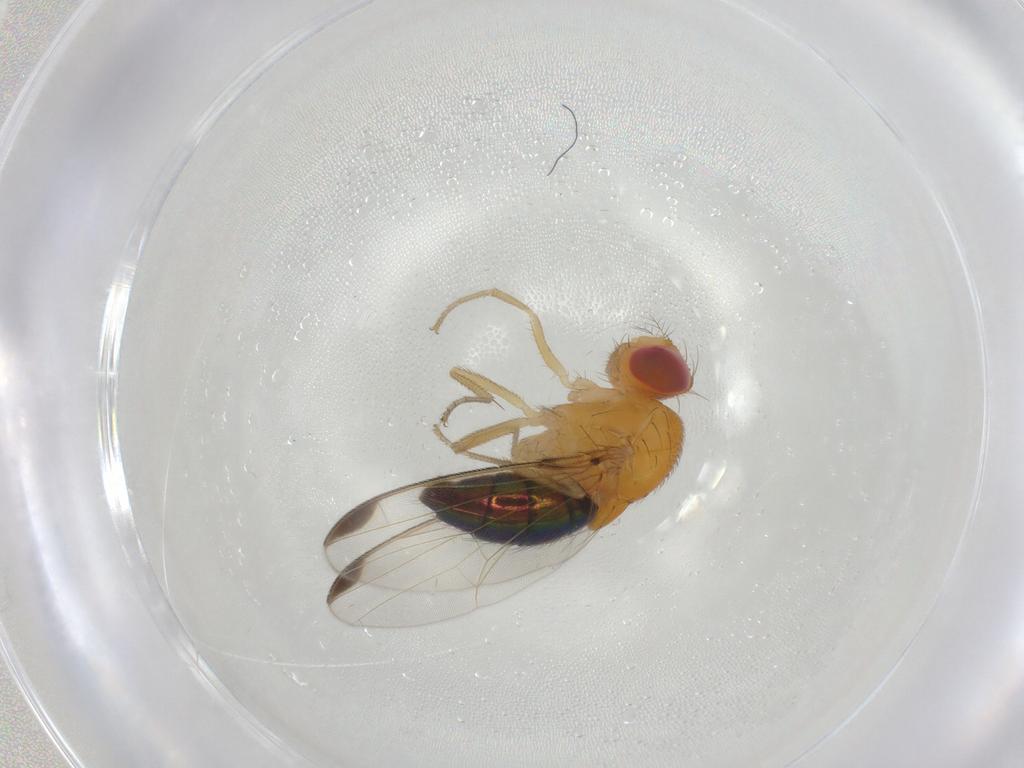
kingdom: Animalia
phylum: Arthropoda
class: Insecta
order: Diptera
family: Drosophilidae
